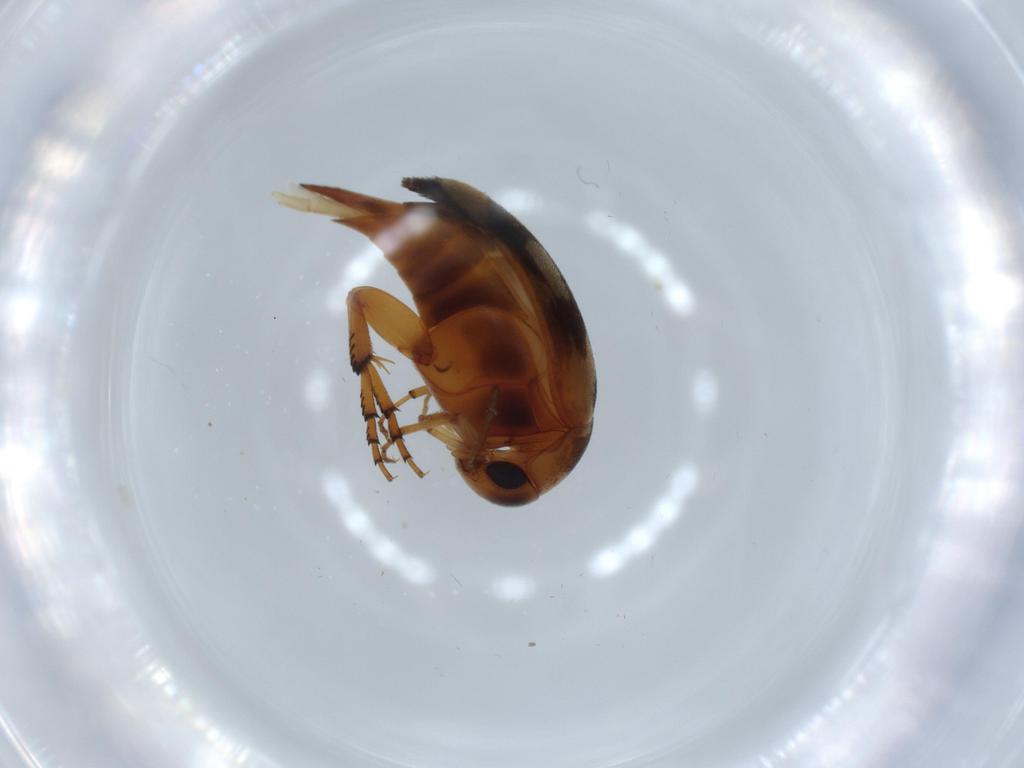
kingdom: Animalia
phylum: Arthropoda
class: Insecta
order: Coleoptera
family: Mordellidae
